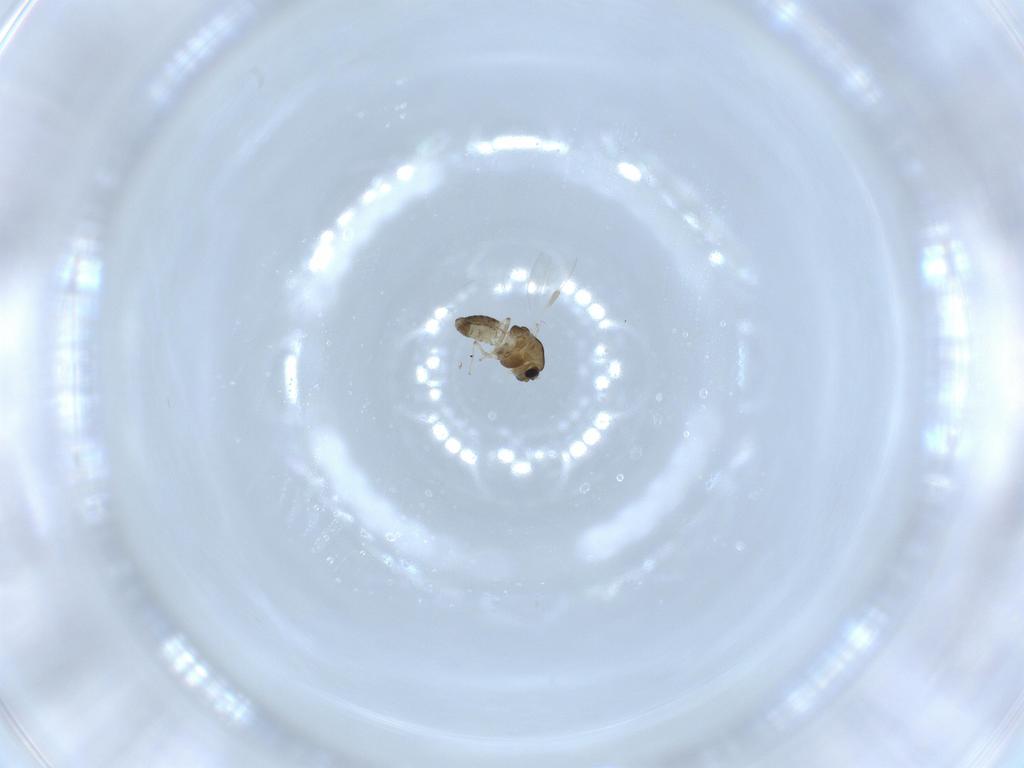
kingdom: Animalia
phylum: Arthropoda
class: Insecta
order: Diptera
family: Chironomidae
